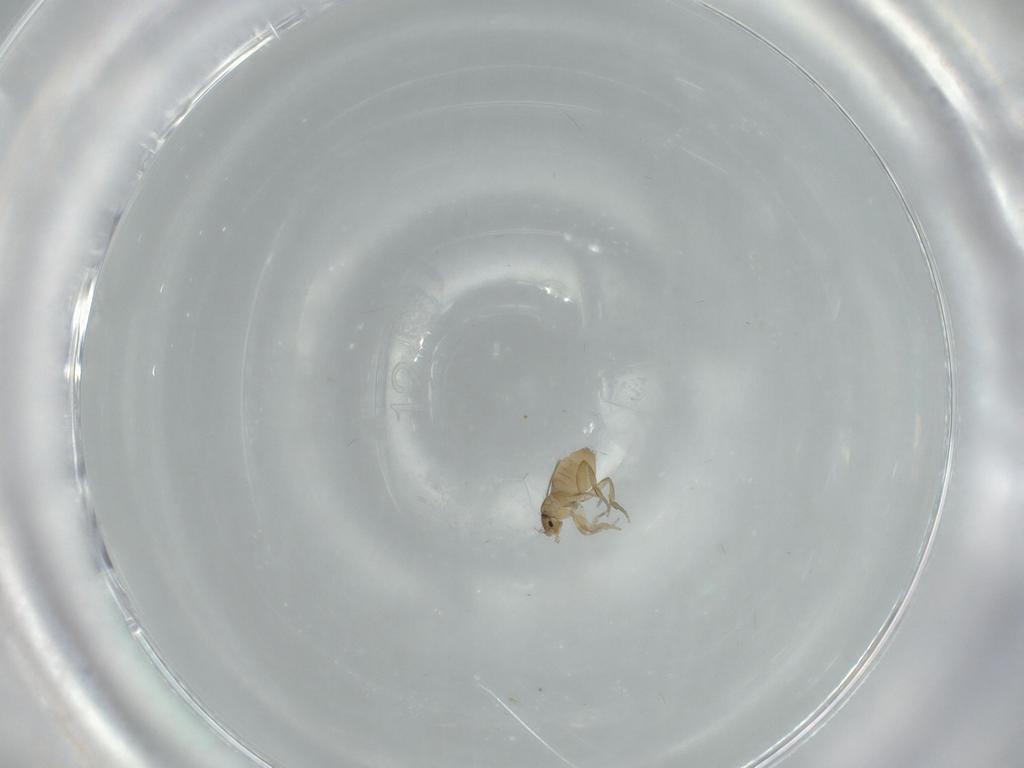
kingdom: Animalia
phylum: Arthropoda
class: Insecta
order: Diptera
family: Phoridae
